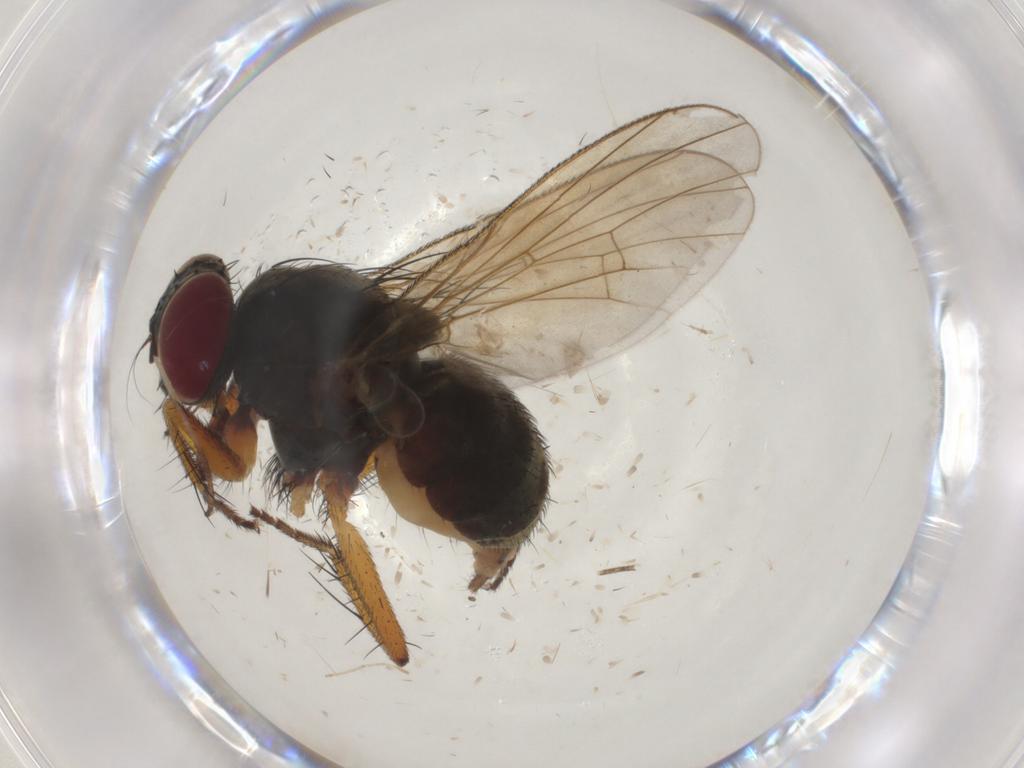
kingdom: Animalia
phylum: Arthropoda
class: Insecta
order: Diptera
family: Muscidae
